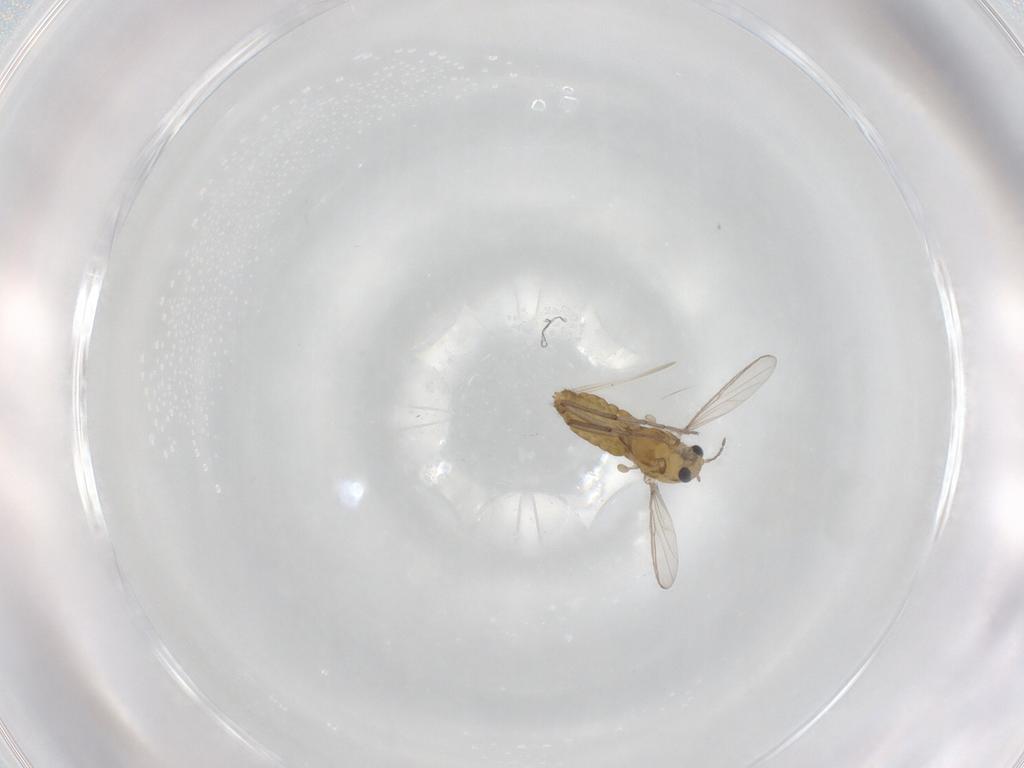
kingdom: Animalia
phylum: Arthropoda
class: Insecta
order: Diptera
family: Chironomidae
